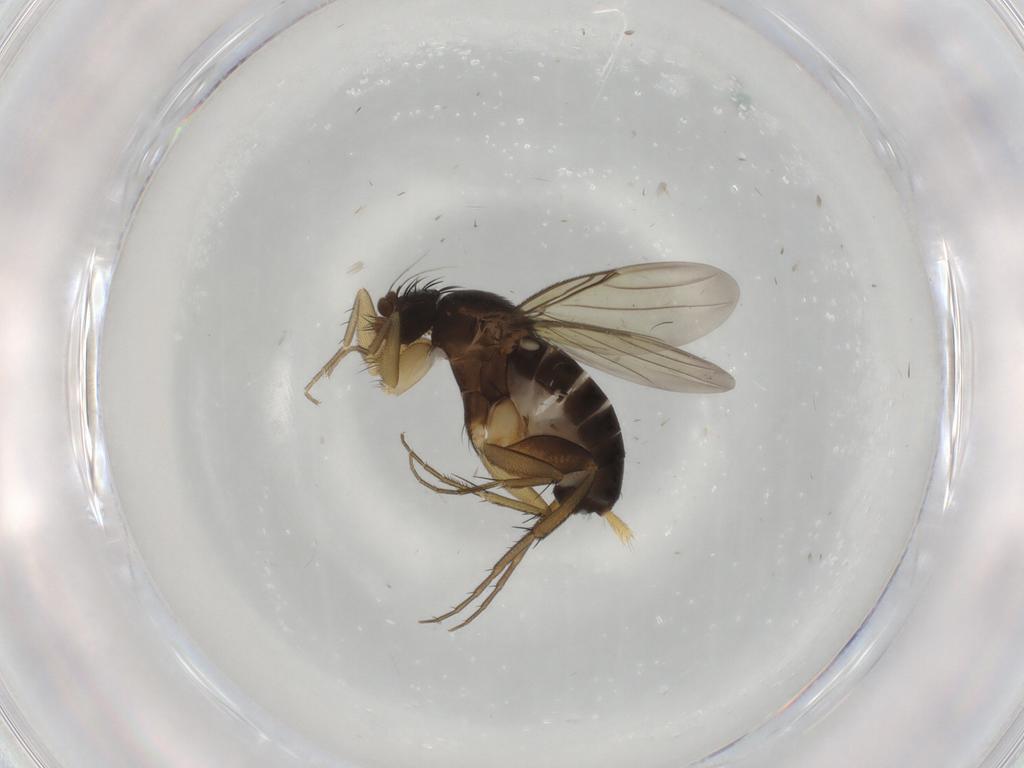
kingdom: Animalia
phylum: Arthropoda
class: Insecta
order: Diptera
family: Phoridae
